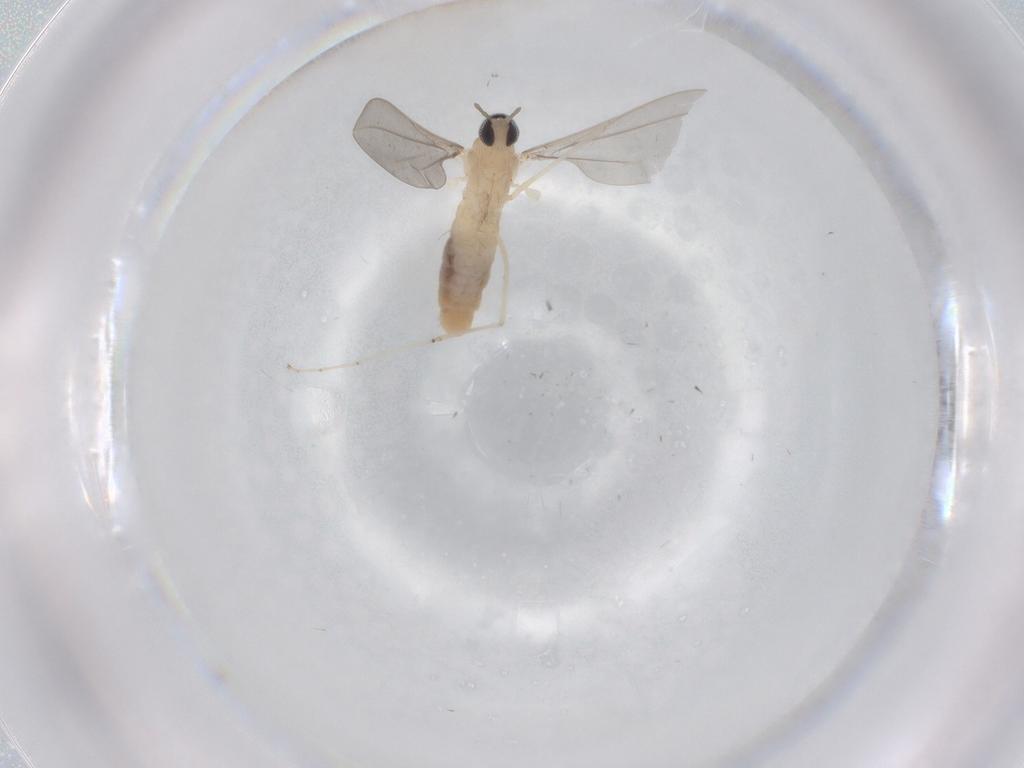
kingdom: Animalia
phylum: Arthropoda
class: Insecta
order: Diptera
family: Cecidomyiidae
